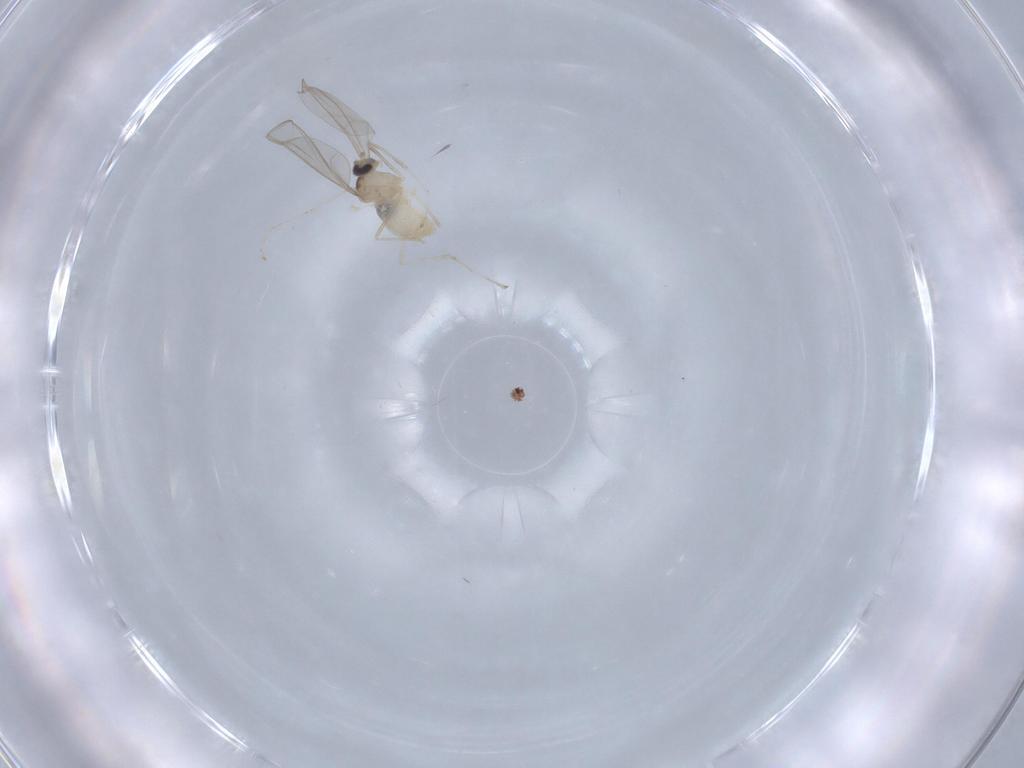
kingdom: Animalia
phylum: Arthropoda
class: Insecta
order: Diptera
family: Cecidomyiidae
